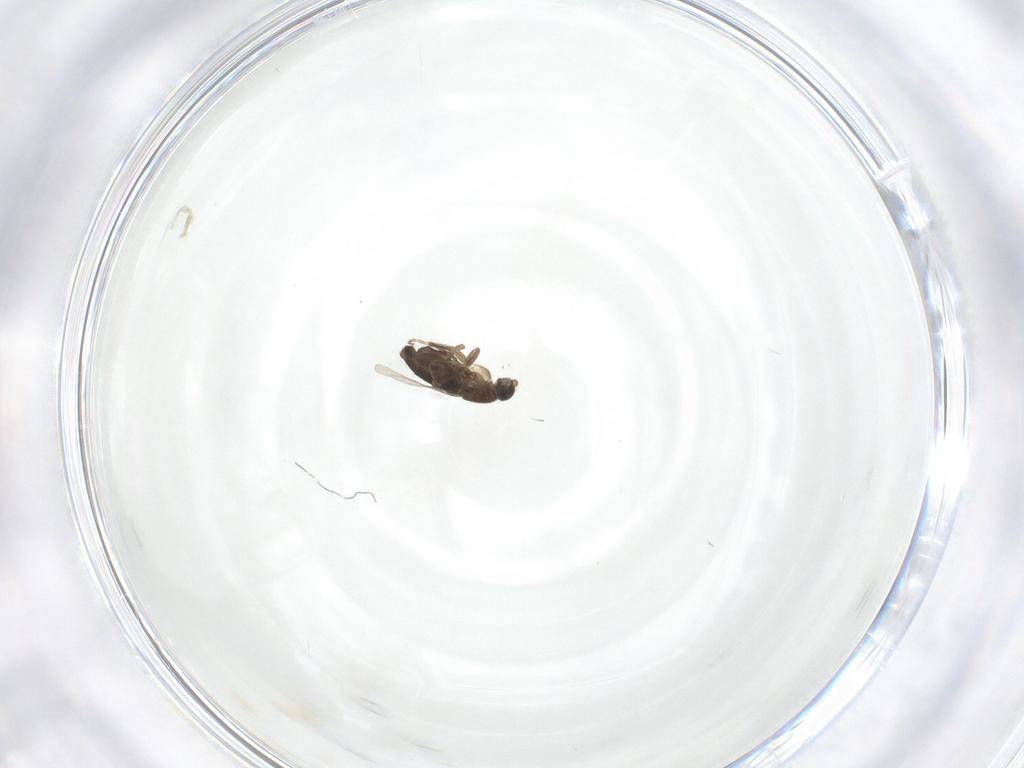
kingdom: Animalia
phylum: Arthropoda
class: Insecta
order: Diptera
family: Phoridae
